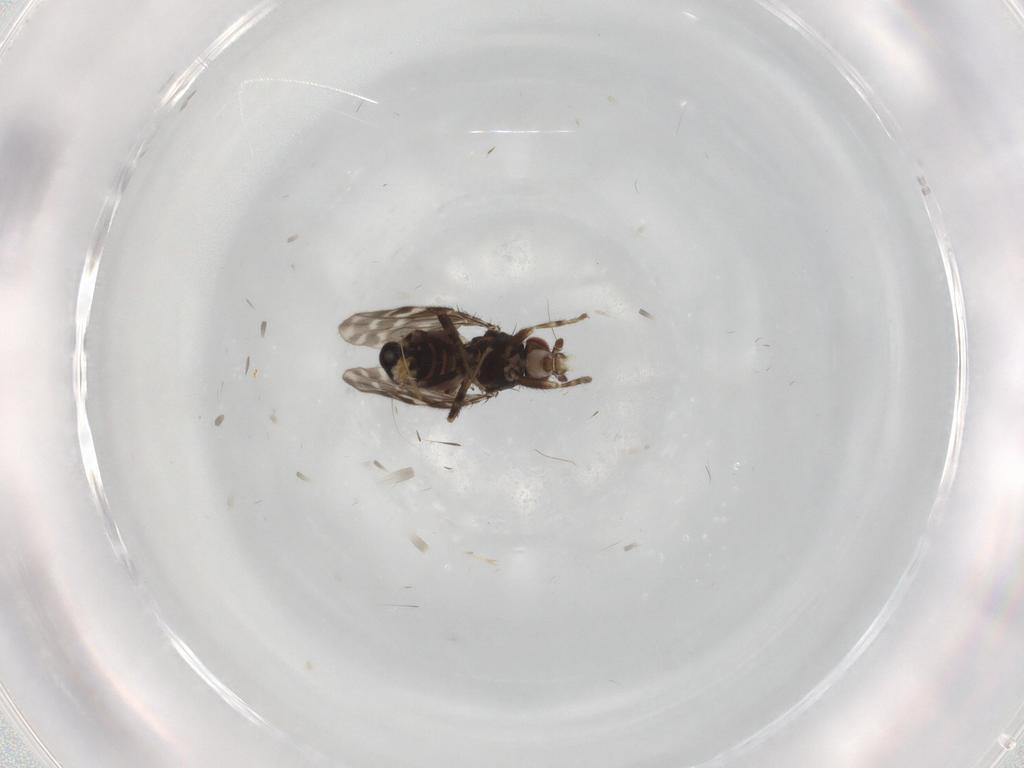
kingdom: Animalia
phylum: Arthropoda
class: Insecta
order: Diptera
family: Sphaeroceridae
